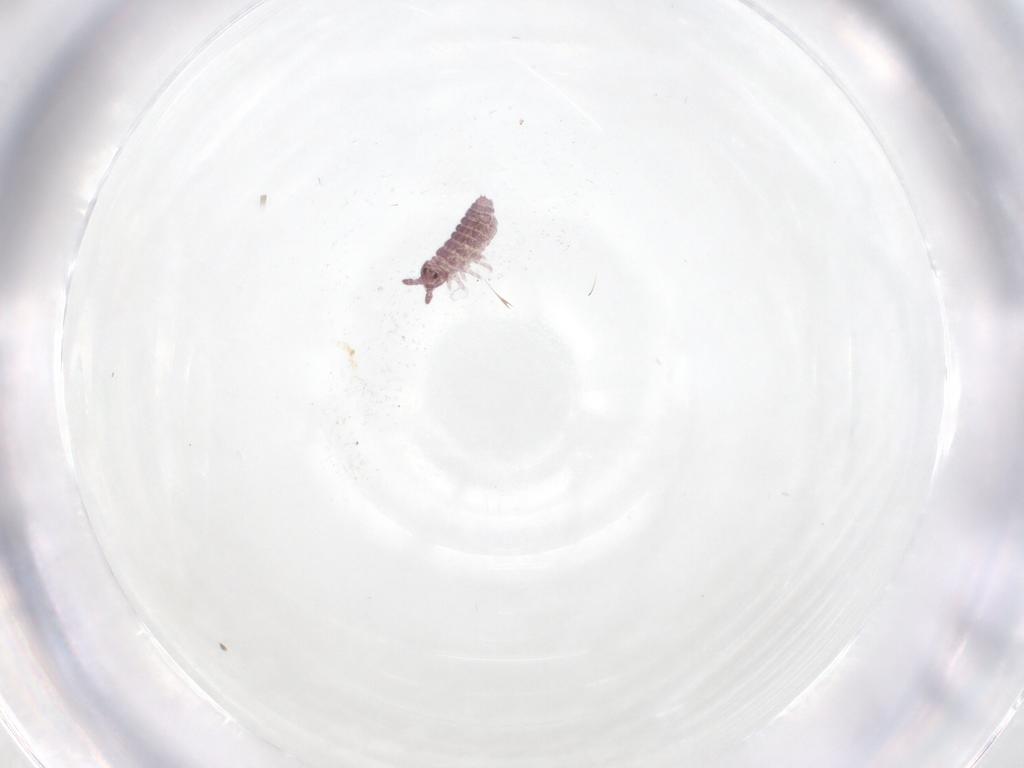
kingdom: Animalia
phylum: Arthropoda
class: Collembola
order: Poduromorpha
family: Hypogastruridae
